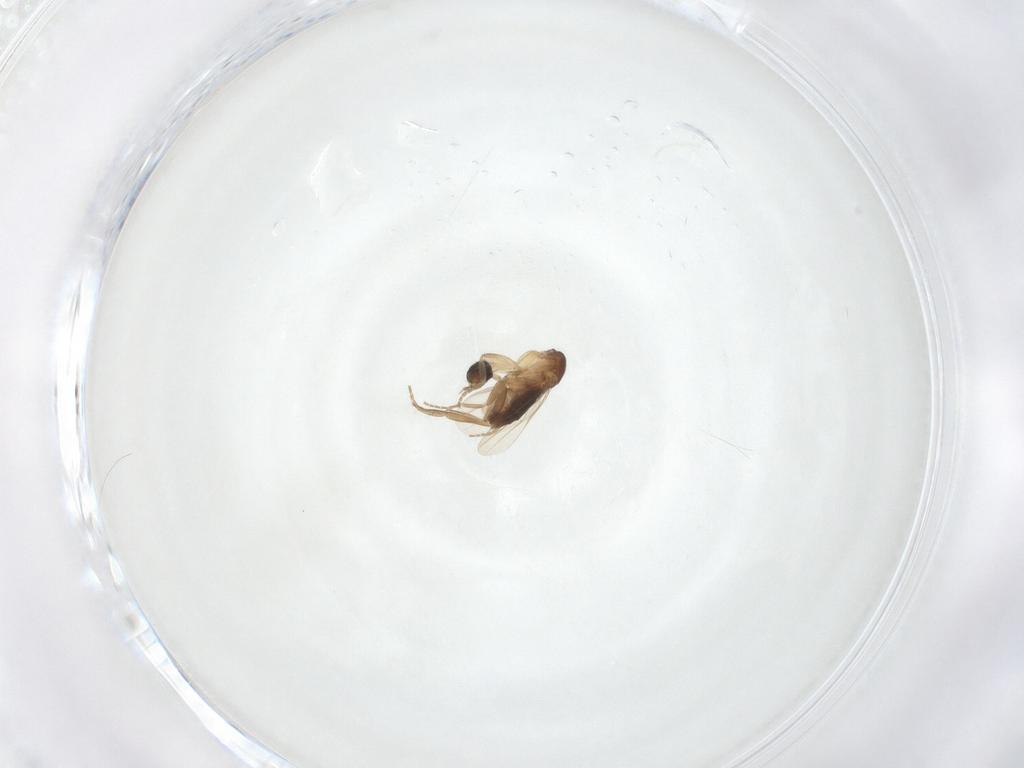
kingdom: Animalia
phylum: Arthropoda
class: Insecta
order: Diptera
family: Phoridae
